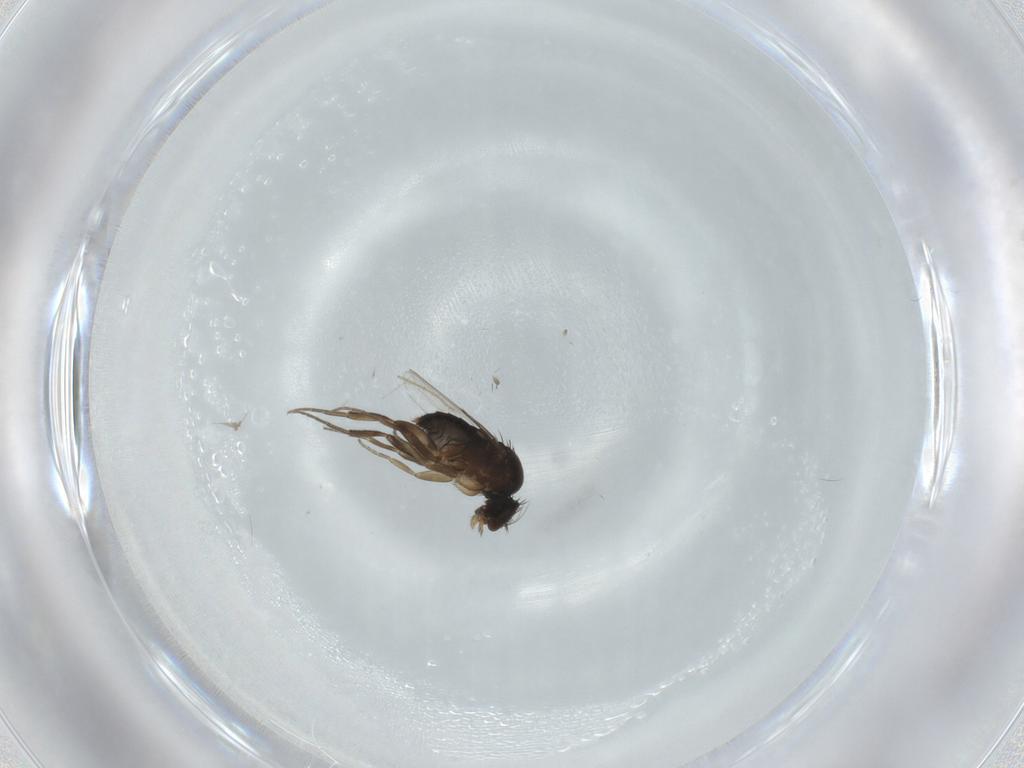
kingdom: Animalia
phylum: Arthropoda
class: Insecta
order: Diptera
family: Phoridae
